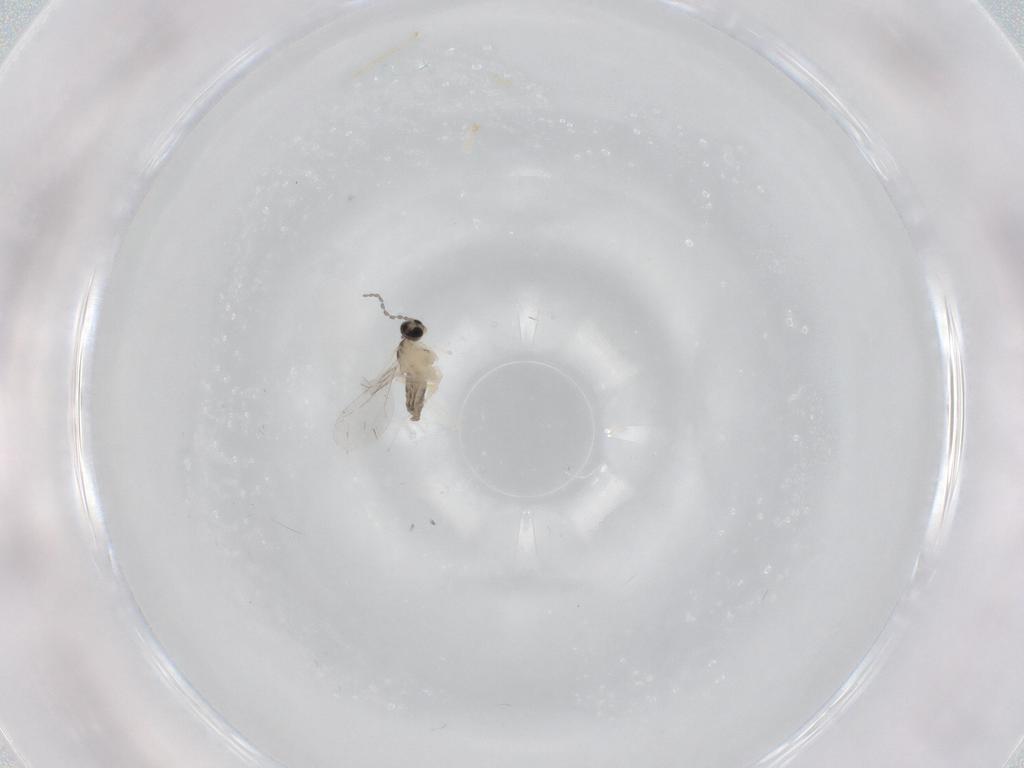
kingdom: Animalia
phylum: Arthropoda
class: Insecta
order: Diptera
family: Cecidomyiidae
